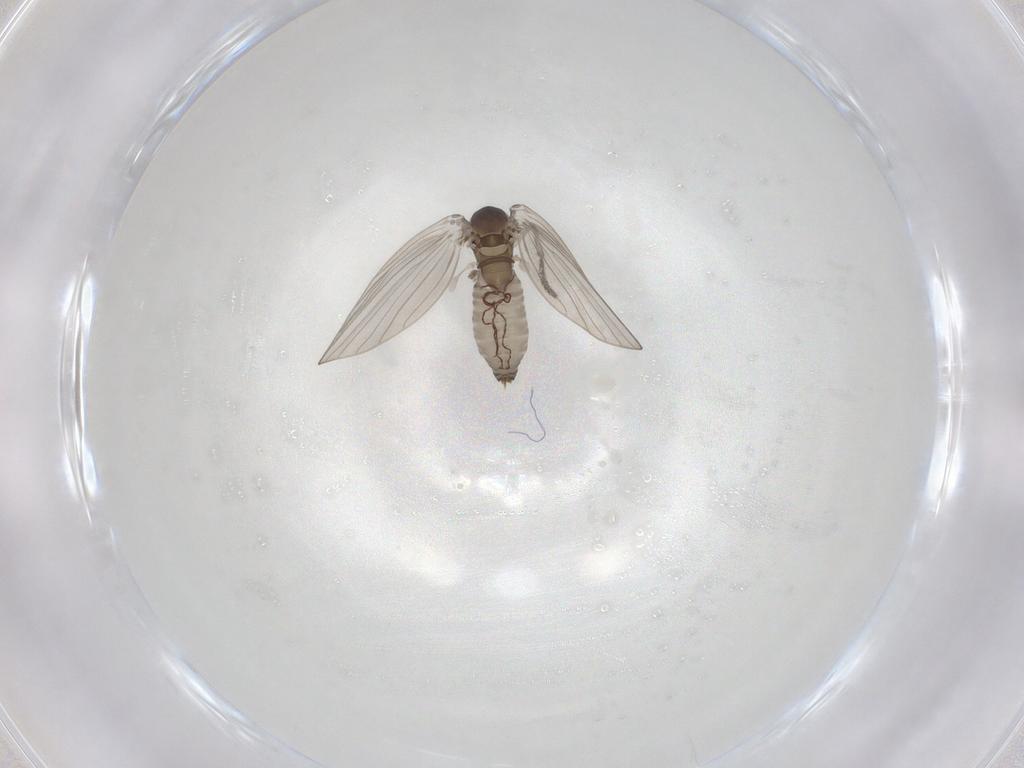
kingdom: Animalia
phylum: Arthropoda
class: Insecta
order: Diptera
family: Psychodidae
